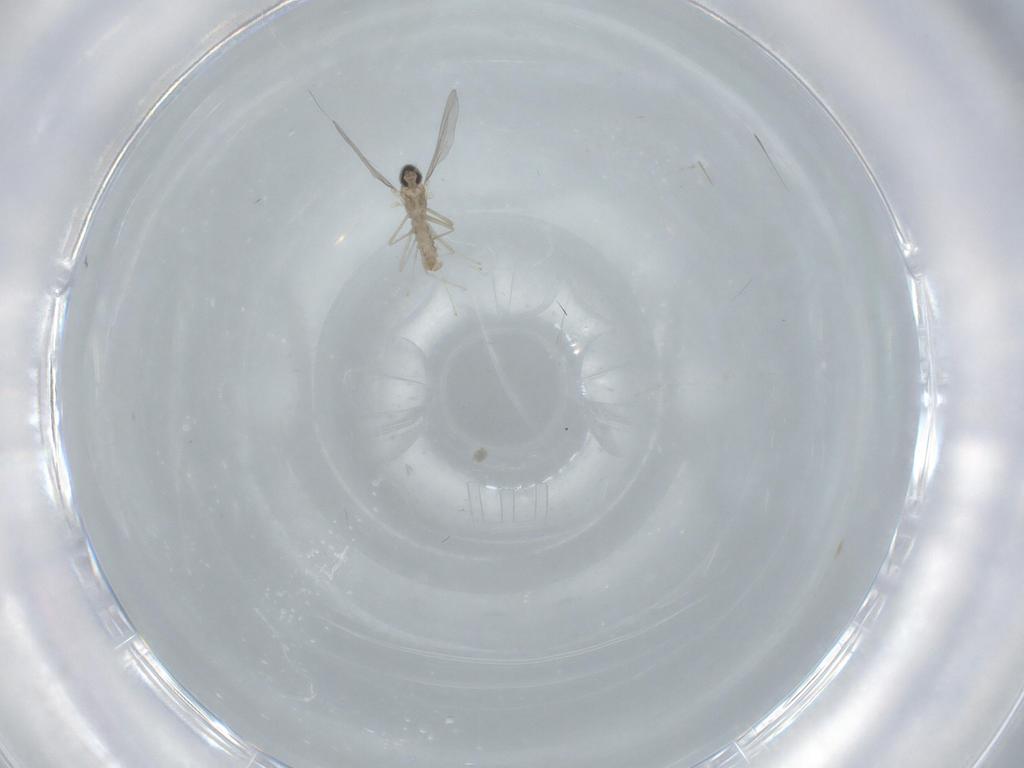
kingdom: Animalia
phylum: Arthropoda
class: Insecta
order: Diptera
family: Cecidomyiidae
